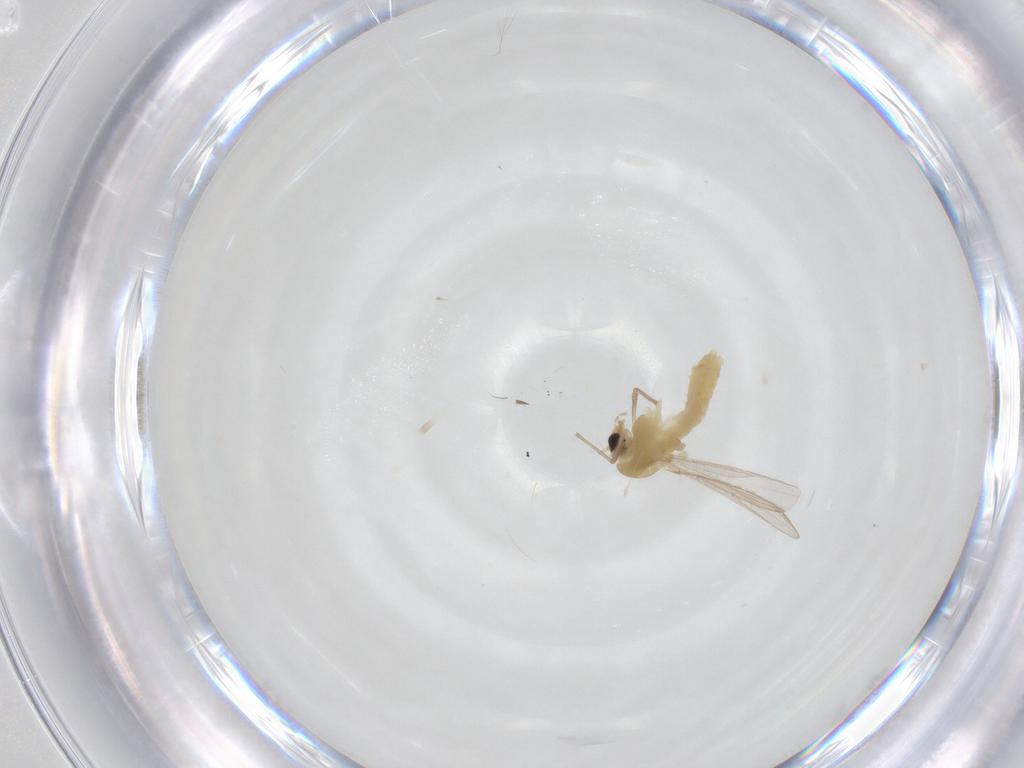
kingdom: Animalia
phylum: Arthropoda
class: Insecta
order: Diptera
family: Chironomidae
